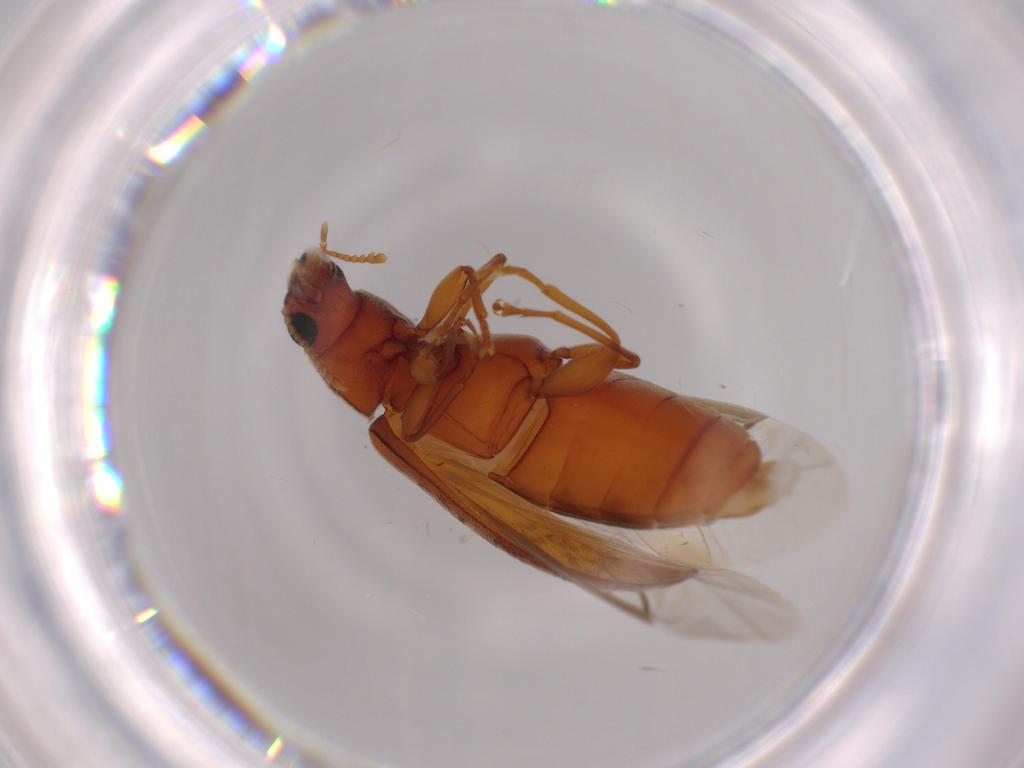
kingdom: Animalia
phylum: Arthropoda
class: Insecta
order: Coleoptera
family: Mycteridae
